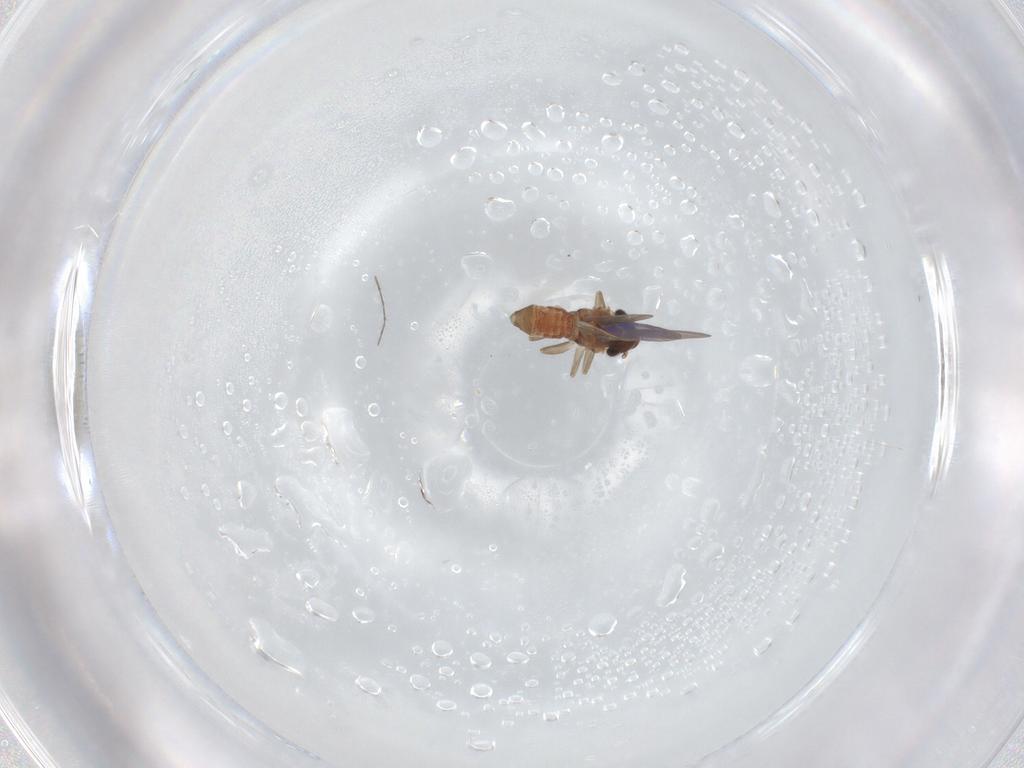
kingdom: Animalia
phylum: Arthropoda
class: Insecta
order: Psocodea
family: Lepidopsocidae
